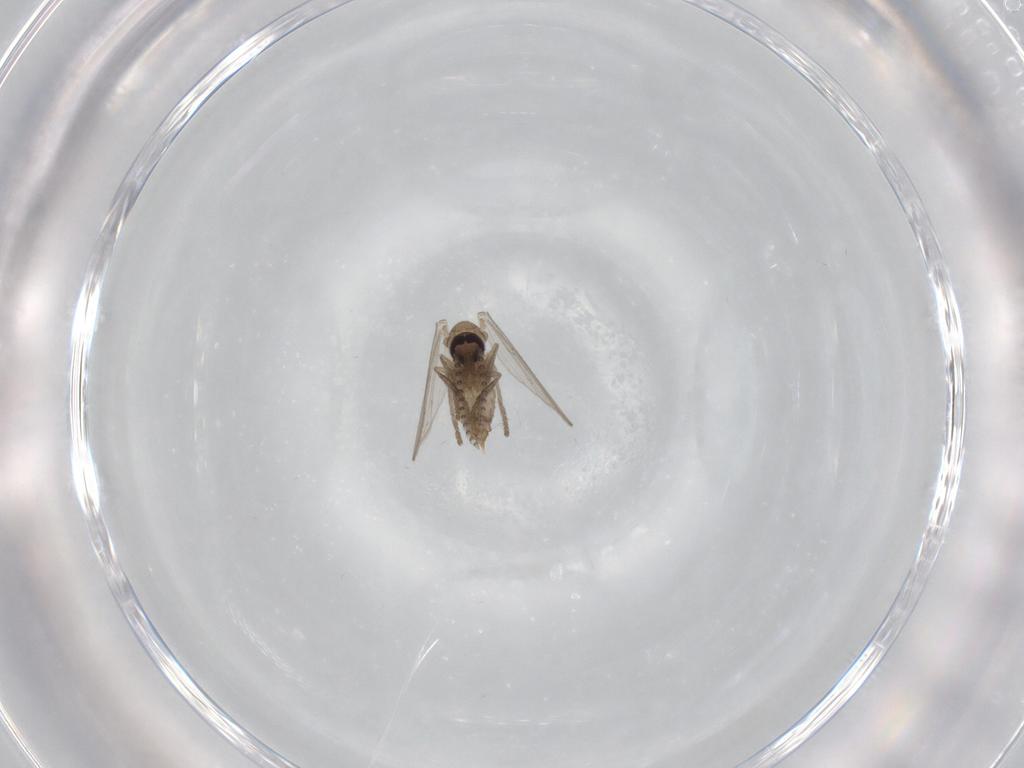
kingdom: Animalia
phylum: Arthropoda
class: Insecta
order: Diptera
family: Psychodidae
